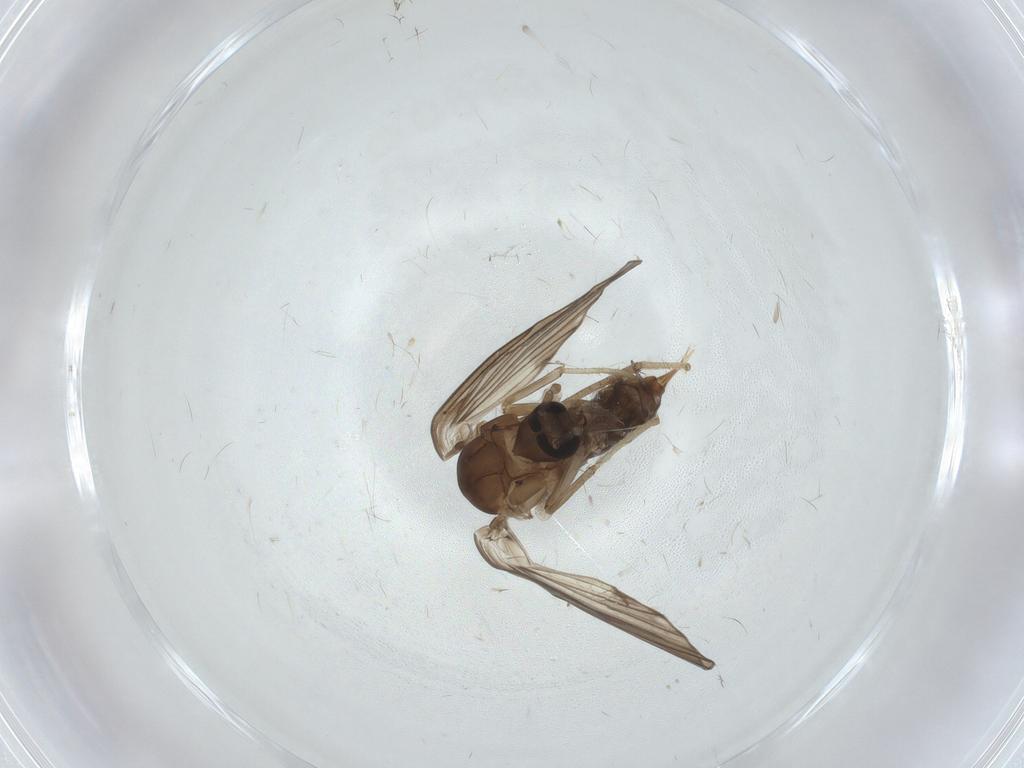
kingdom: Animalia
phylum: Arthropoda
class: Insecta
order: Diptera
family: Psychodidae
